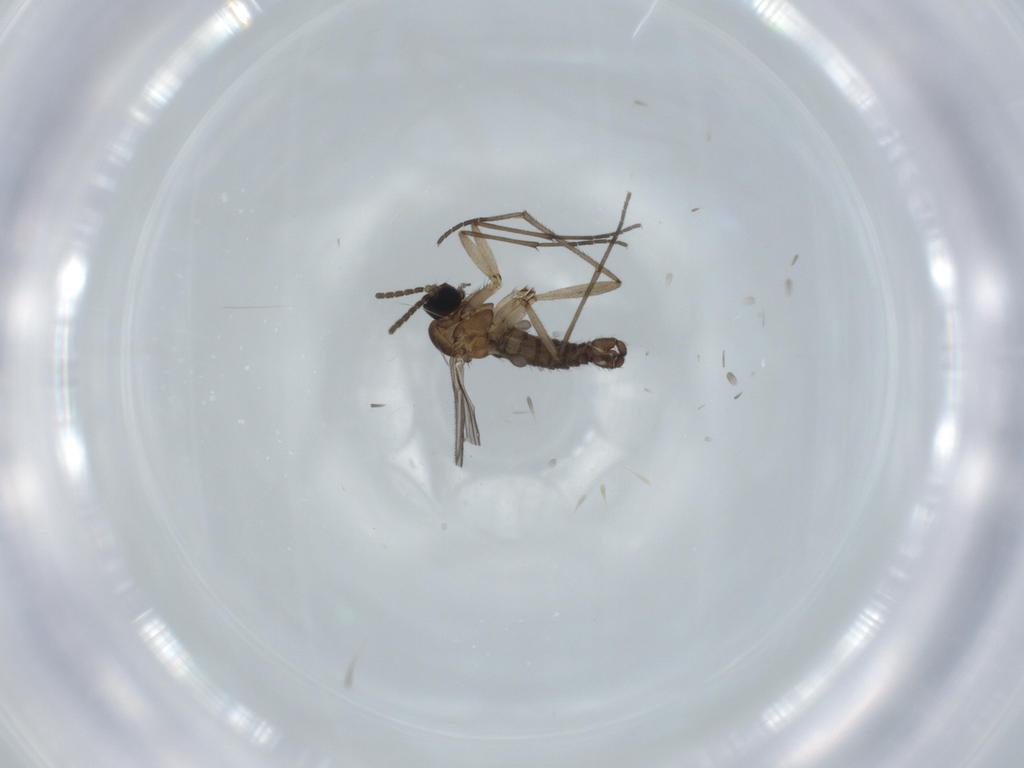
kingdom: Animalia
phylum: Arthropoda
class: Insecta
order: Diptera
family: Sciaridae
